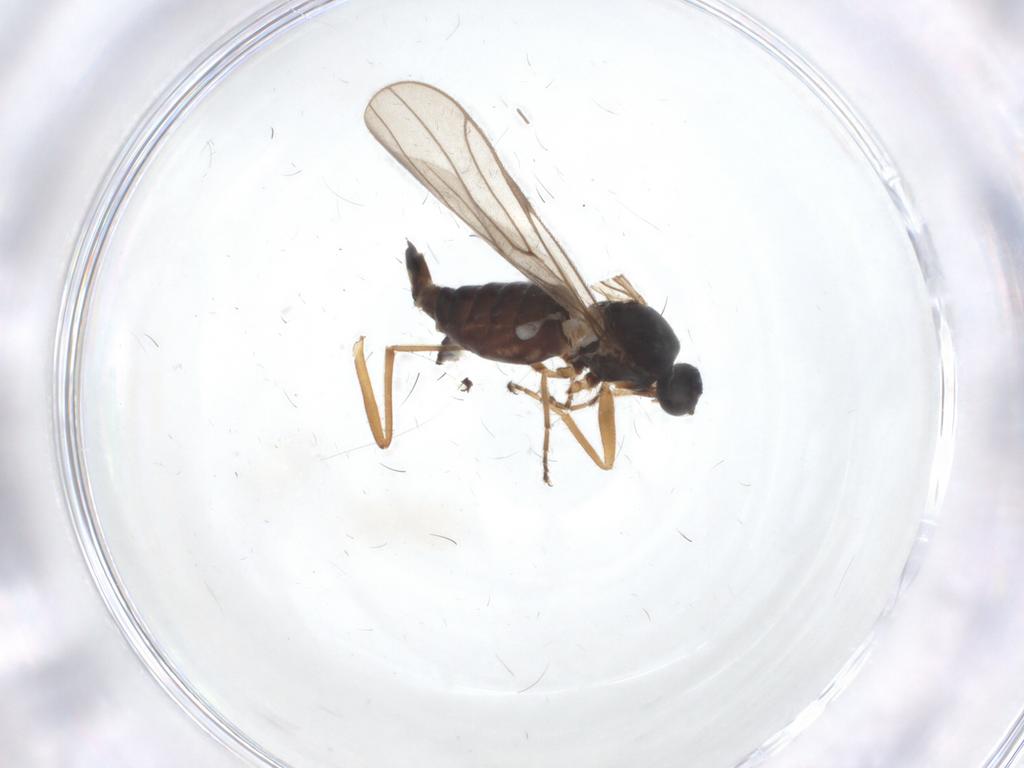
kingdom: Animalia
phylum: Arthropoda
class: Insecta
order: Diptera
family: Hybotidae
